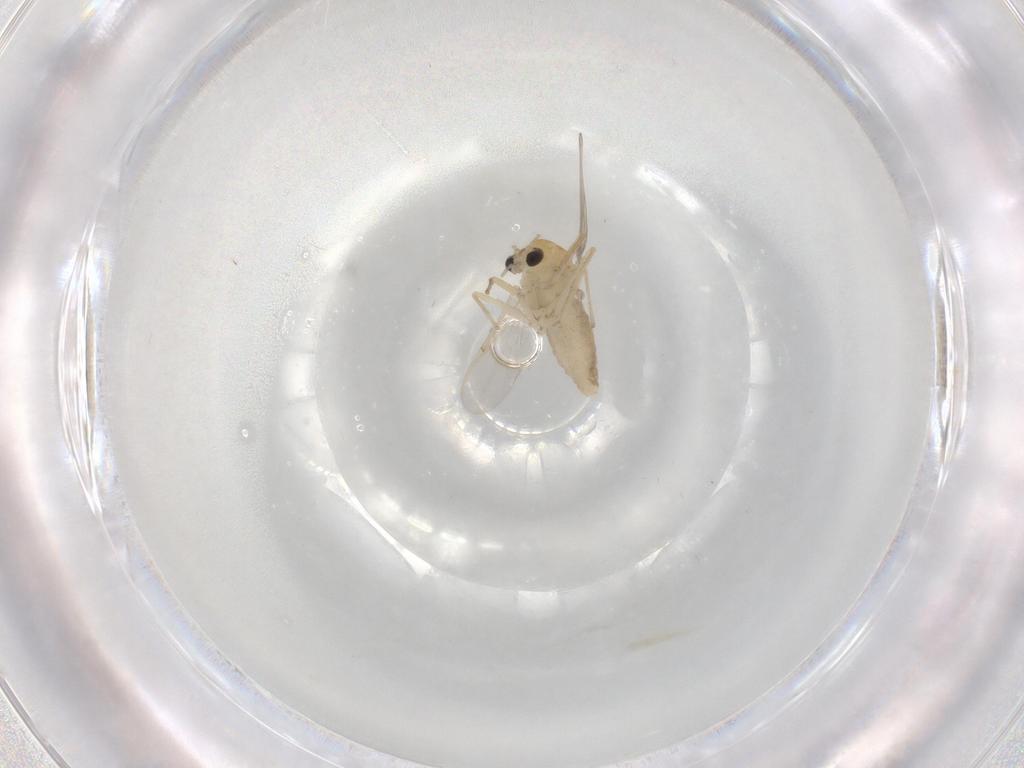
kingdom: Animalia
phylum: Arthropoda
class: Insecta
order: Diptera
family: Chironomidae
